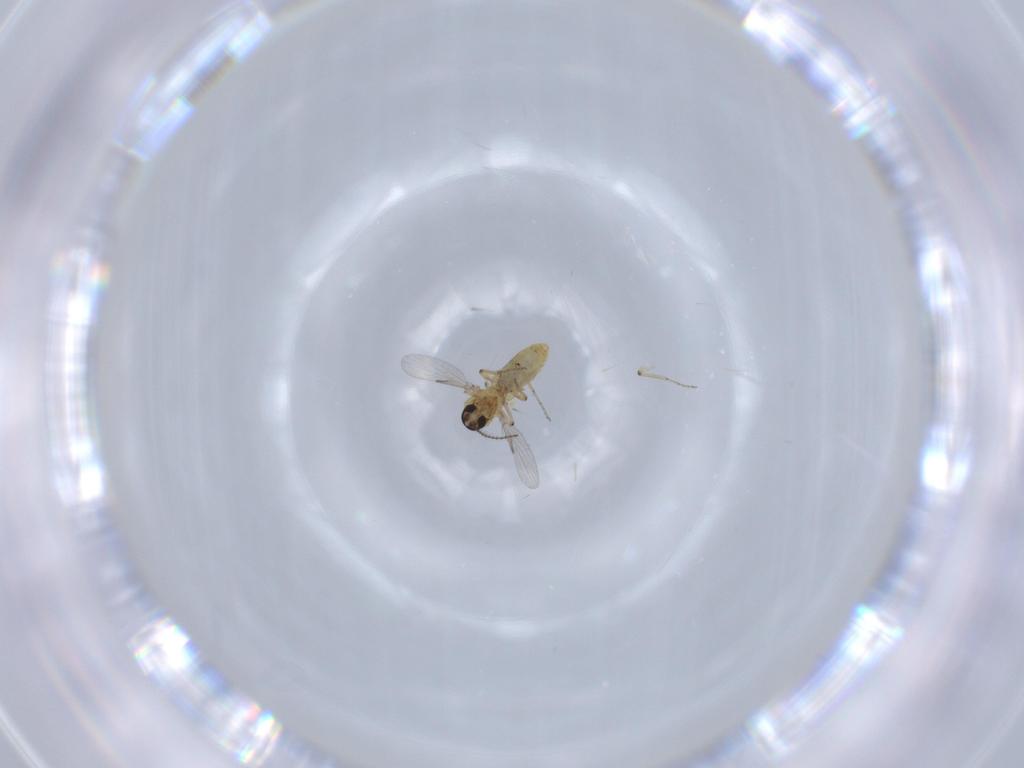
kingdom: Animalia
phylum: Arthropoda
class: Insecta
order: Diptera
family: Ceratopogonidae
